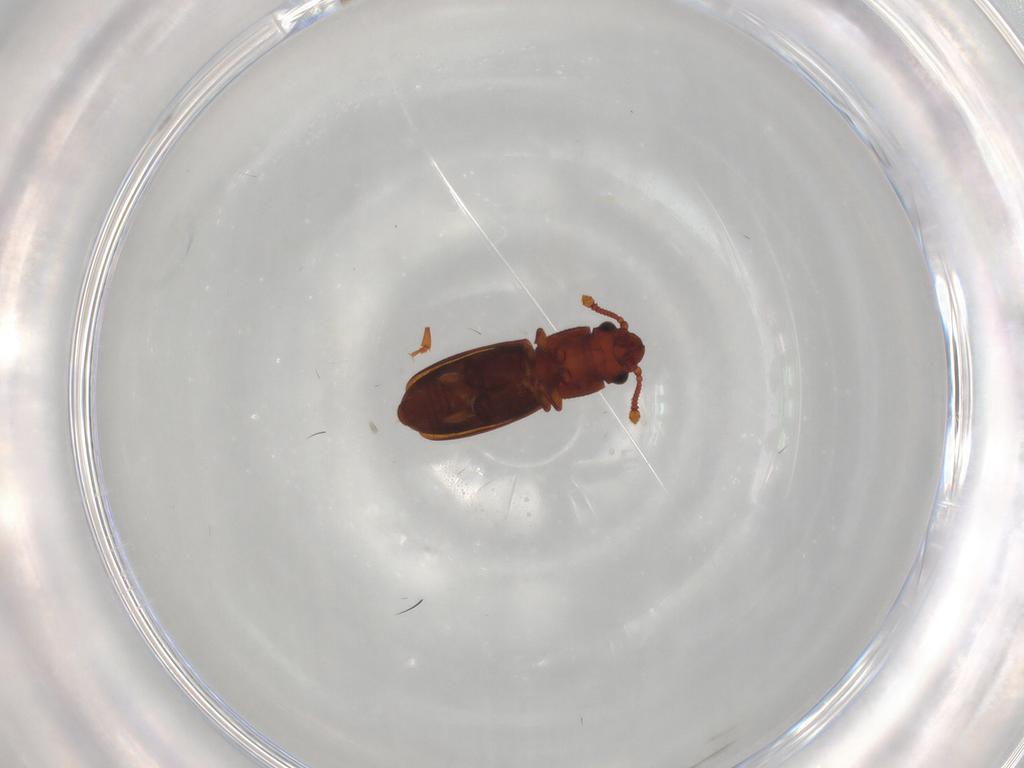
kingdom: Animalia
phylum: Arthropoda
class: Insecta
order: Coleoptera
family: Monotomidae
